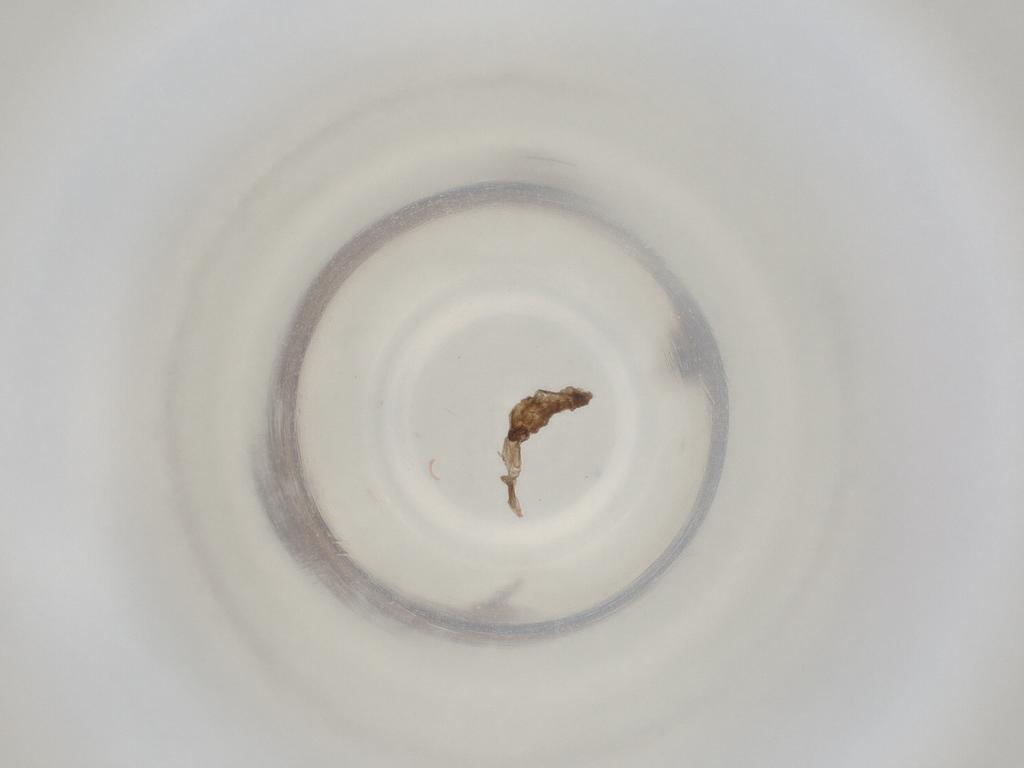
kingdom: Animalia
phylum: Arthropoda
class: Insecta
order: Diptera
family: Cecidomyiidae
